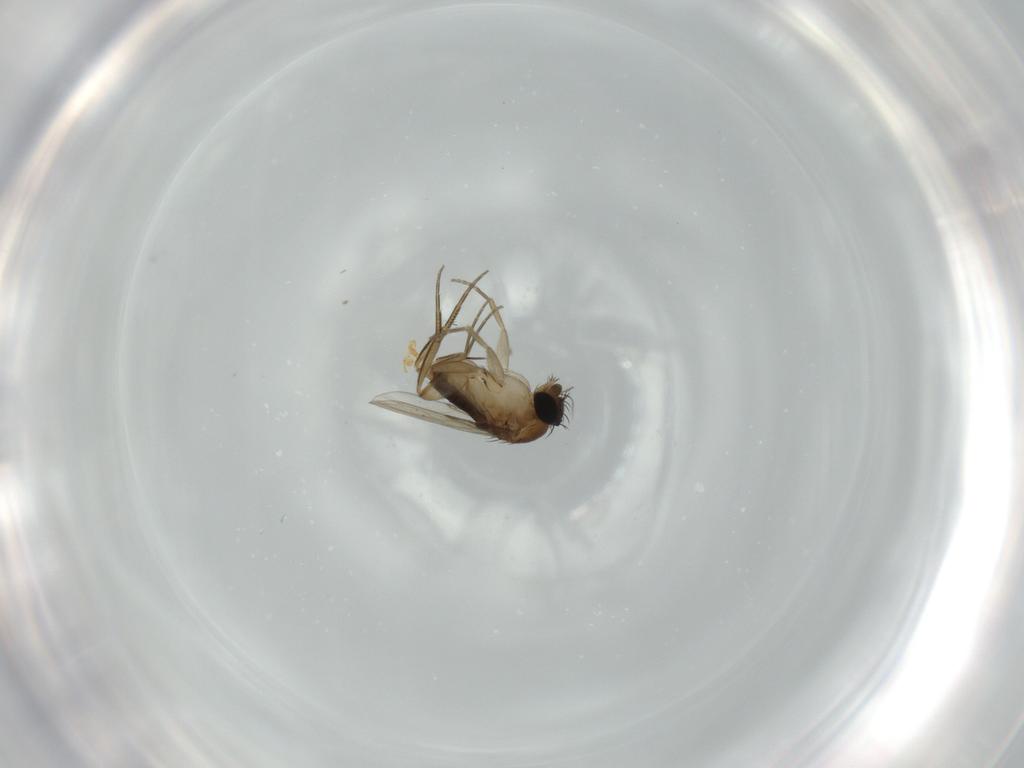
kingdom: Animalia
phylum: Arthropoda
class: Insecta
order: Diptera
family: Phoridae
